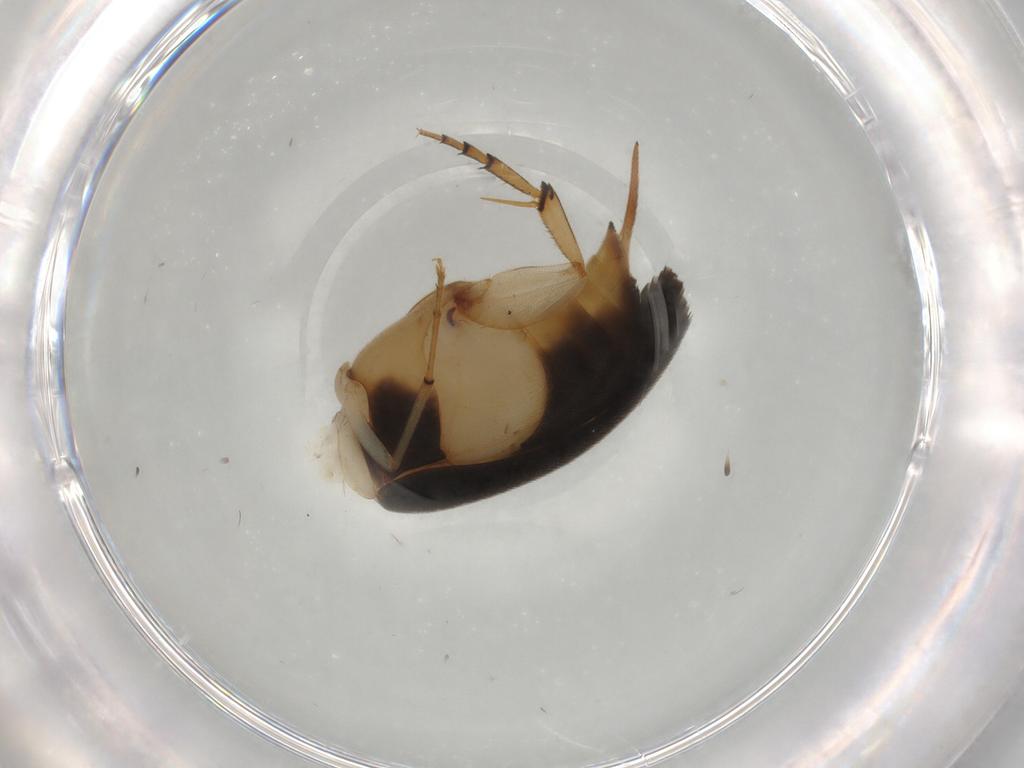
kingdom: Animalia
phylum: Arthropoda
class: Insecta
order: Coleoptera
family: Mordellidae
